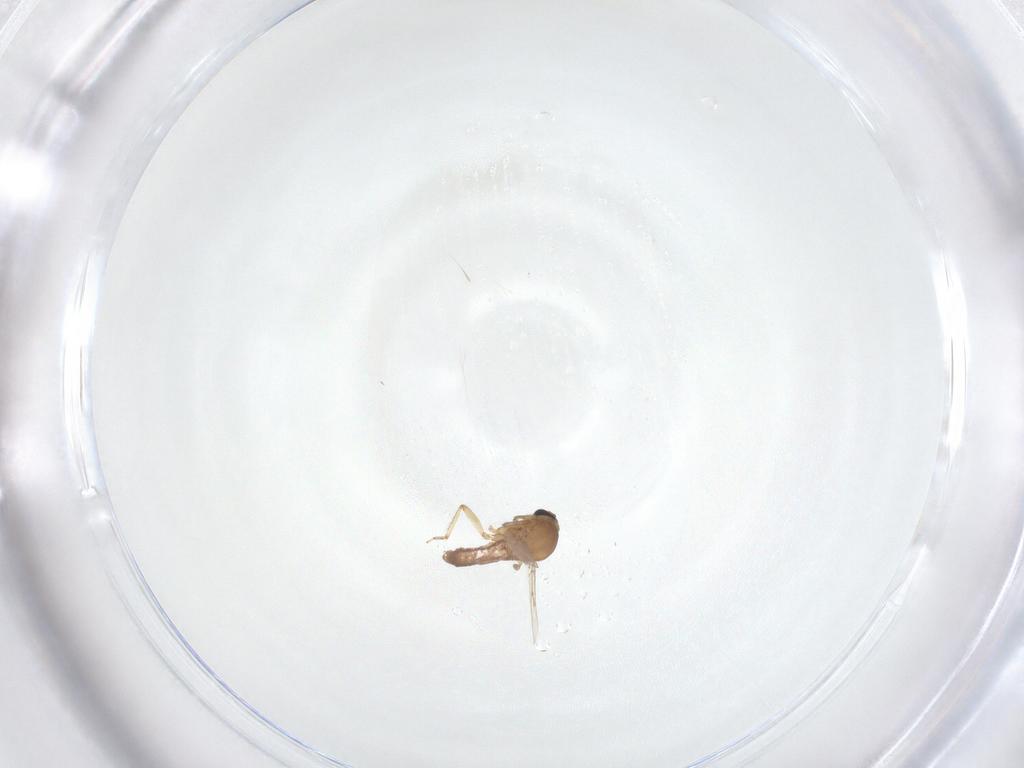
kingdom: Animalia
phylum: Arthropoda
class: Insecta
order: Diptera
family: Ceratopogonidae
